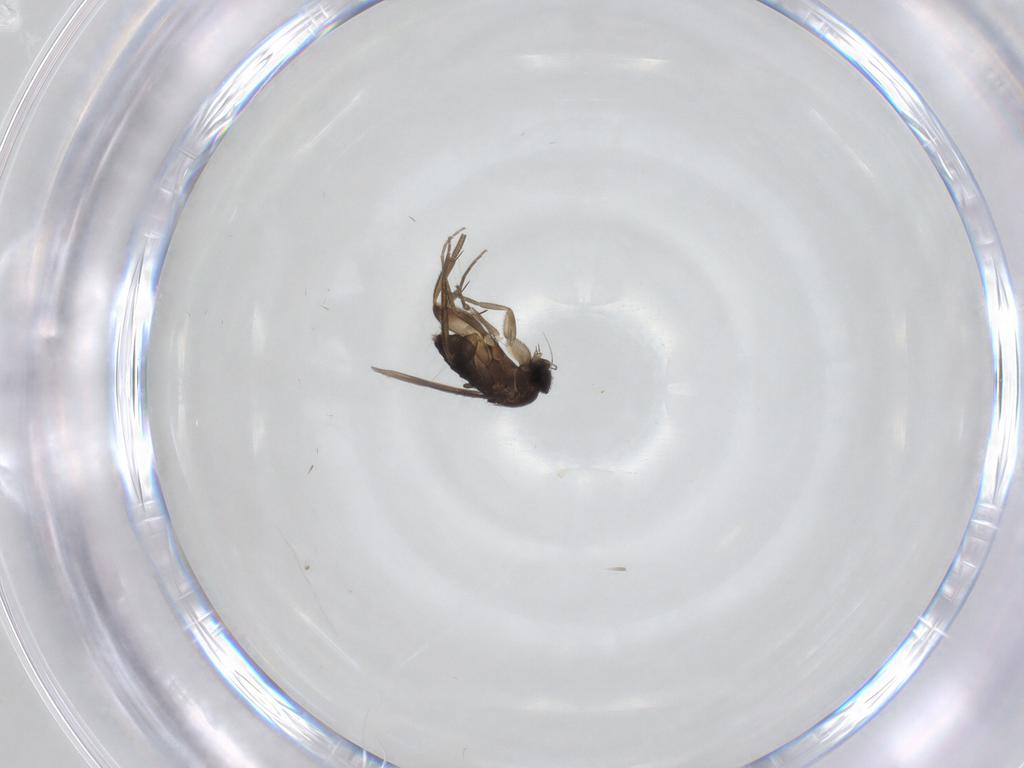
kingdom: Animalia
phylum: Arthropoda
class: Insecta
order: Diptera
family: Phoridae
